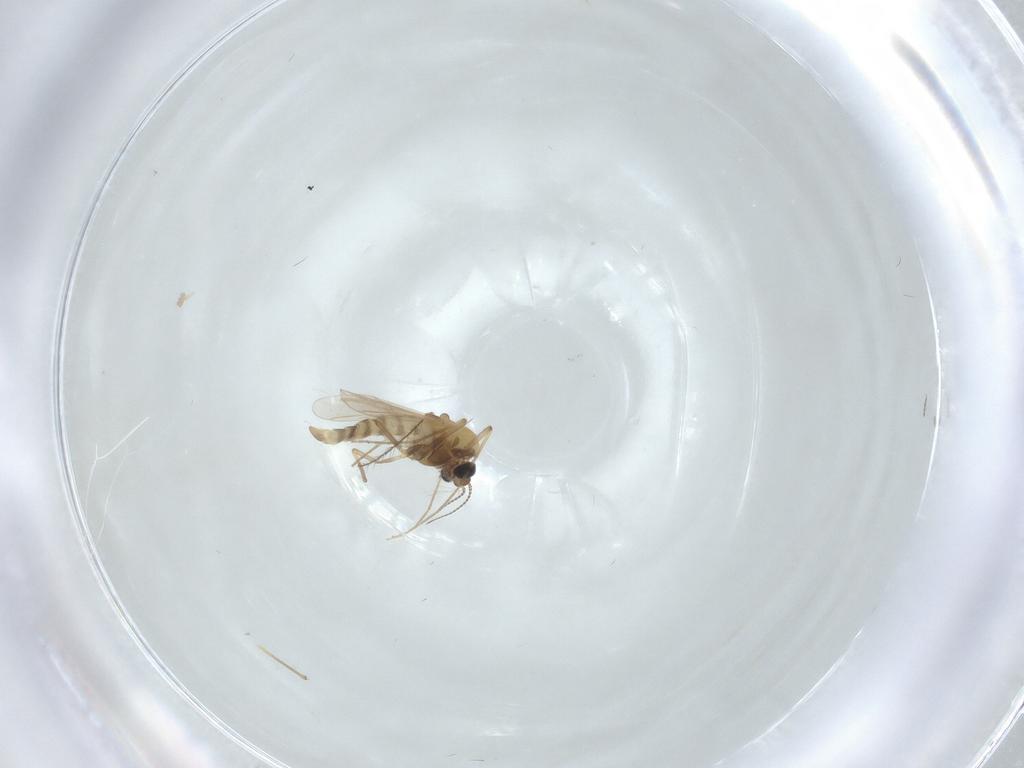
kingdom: Animalia
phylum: Arthropoda
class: Insecta
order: Diptera
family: Chironomidae
